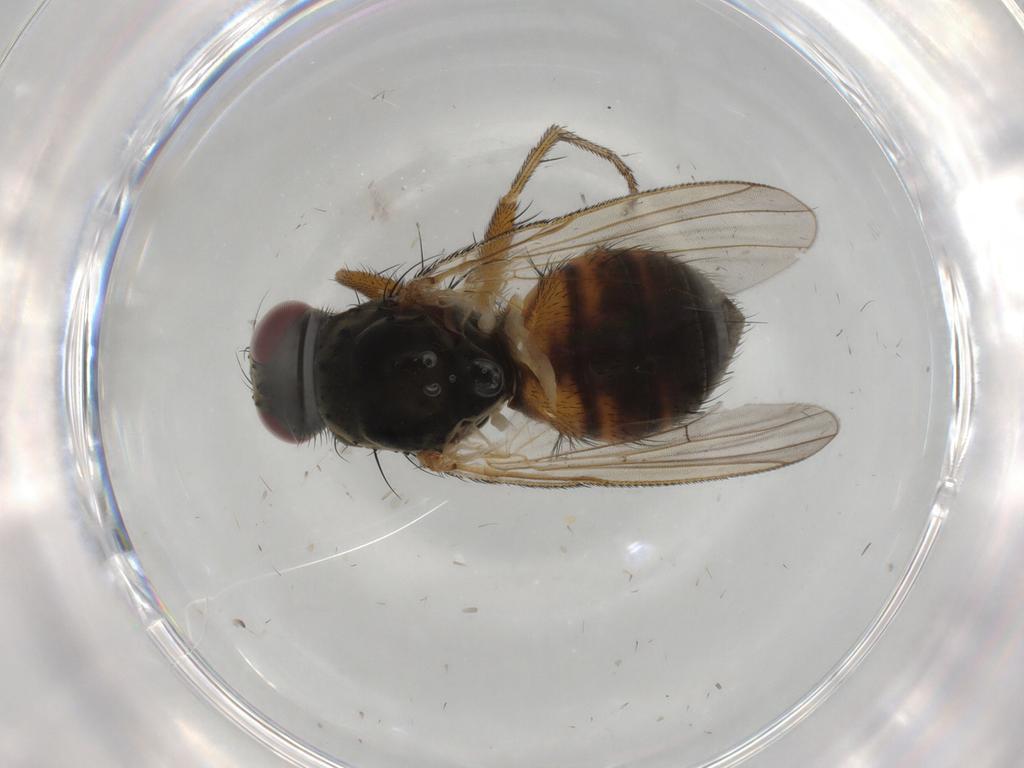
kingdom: Animalia
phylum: Arthropoda
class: Insecta
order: Diptera
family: Muscidae
